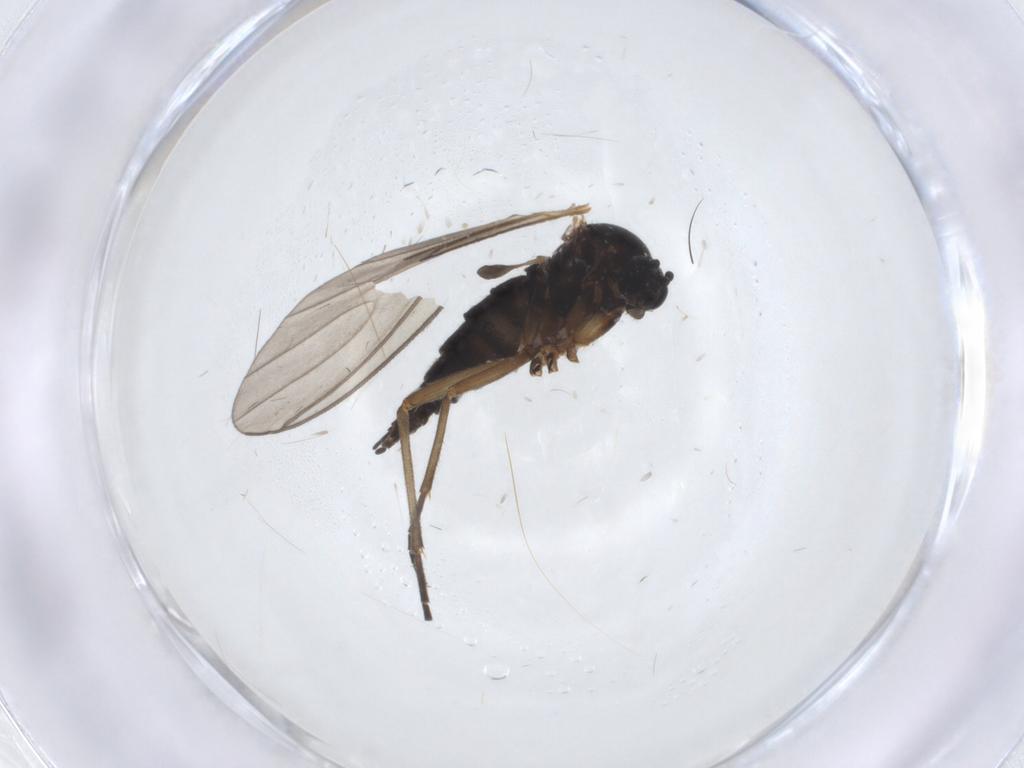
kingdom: Animalia
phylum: Arthropoda
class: Insecta
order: Diptera
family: Sciaridae
